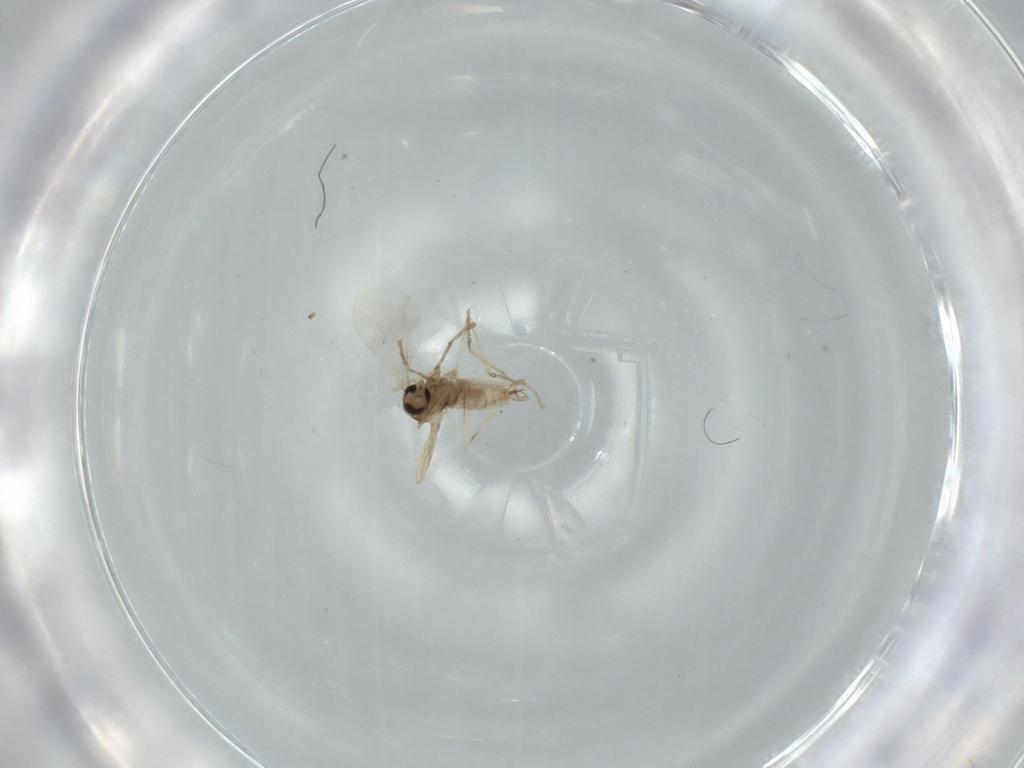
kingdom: Animalia
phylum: Arthropoda
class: Insecta
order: Diptera
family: Cecidomyiidae
